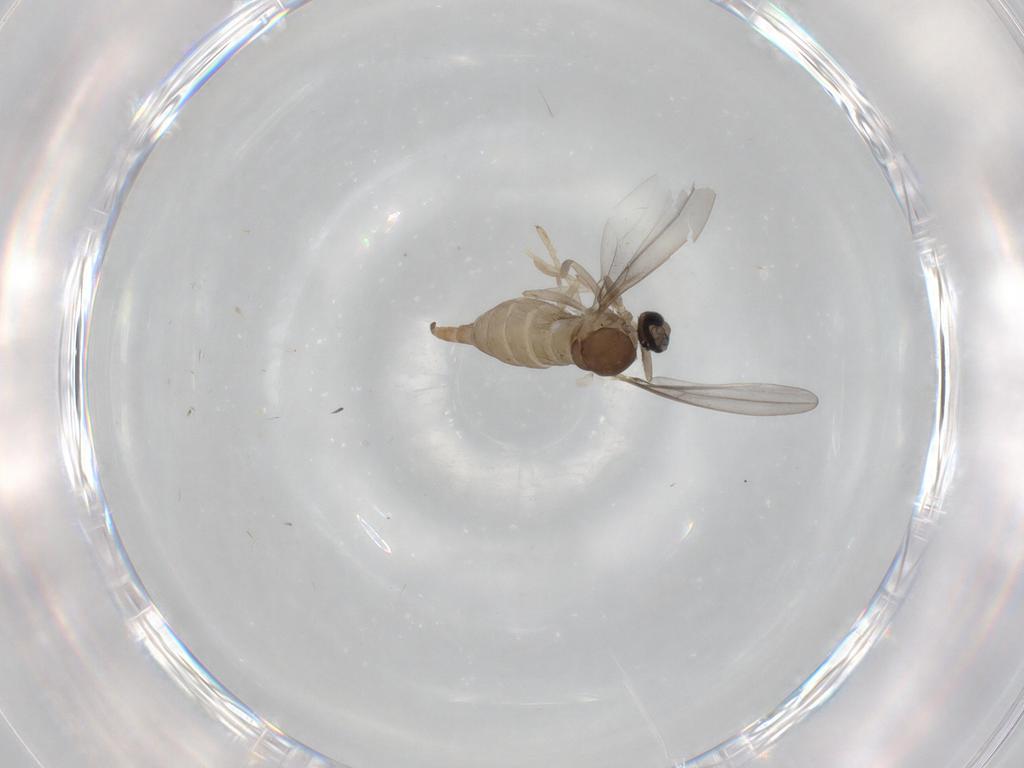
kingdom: Animalia
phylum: Arthropoda
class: Insecta
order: Diptera
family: Cecidomyiidae
